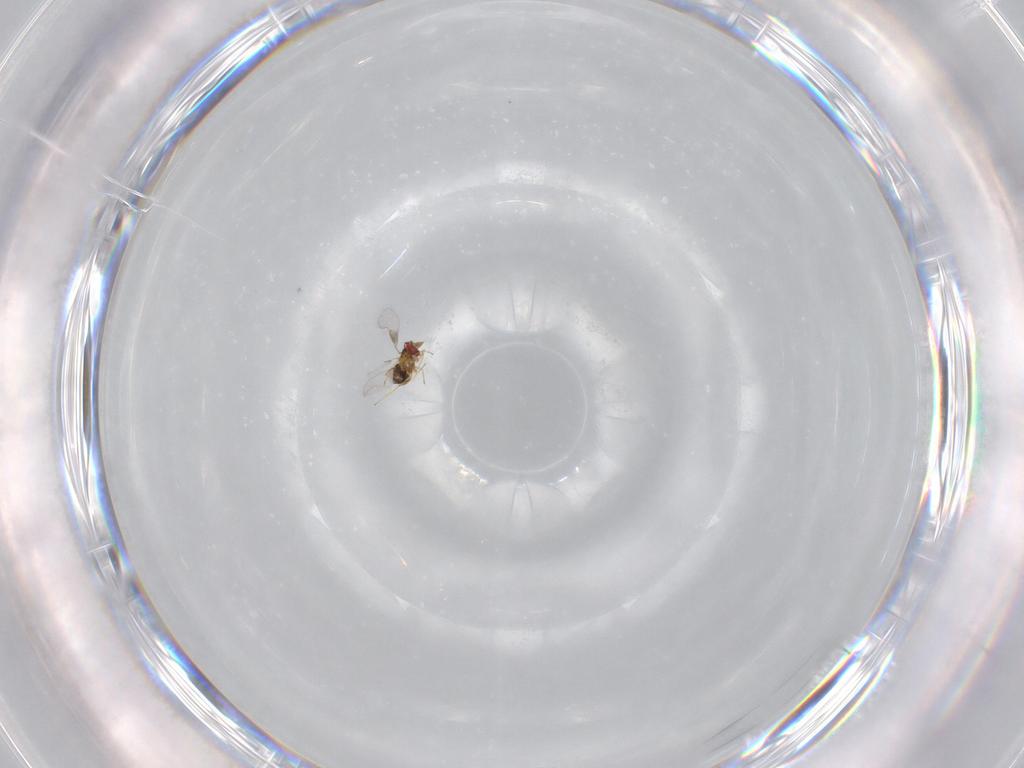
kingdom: Animalia
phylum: Arthropoda
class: Insecta
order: Hymenoptera
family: Trichogrammatidae
